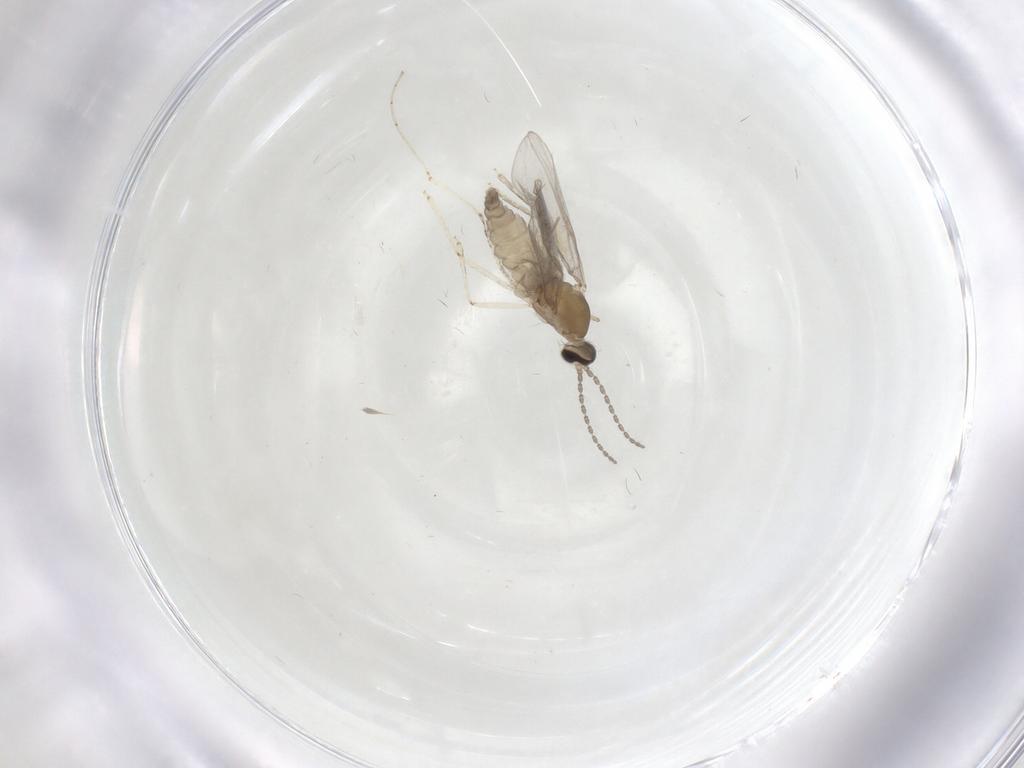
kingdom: Animalia
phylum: Arthropoda
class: Insecta
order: Diptera
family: Cecidomyiidae
